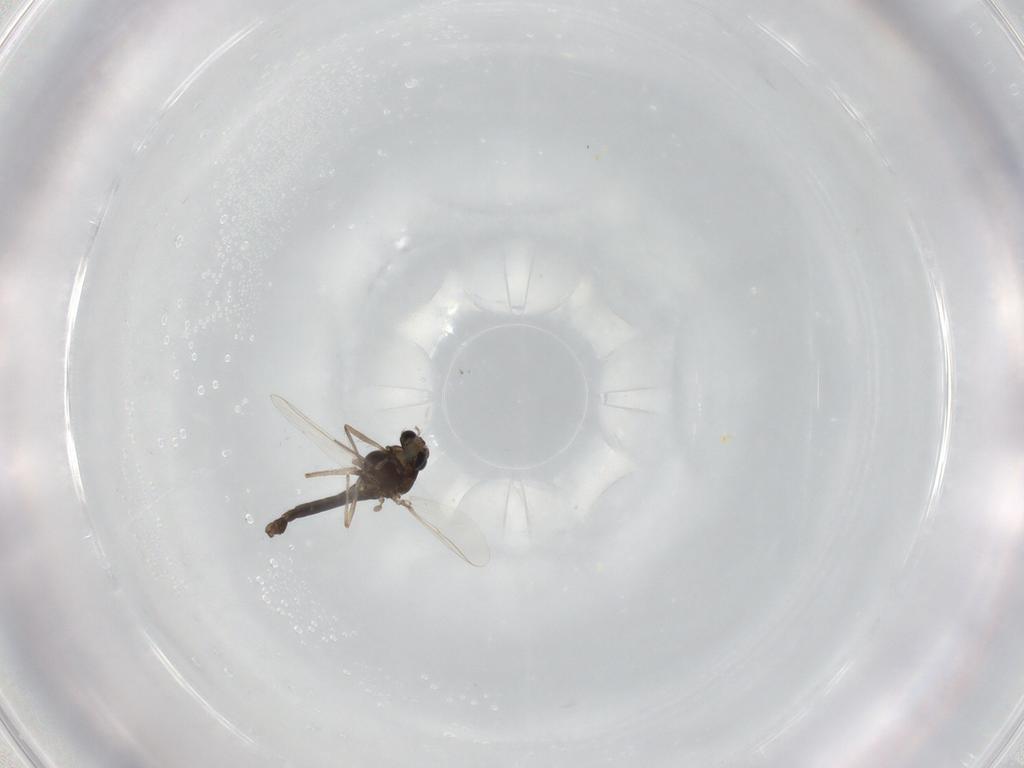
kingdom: Animalia
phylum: Arthropoda
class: Insecta
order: Diptera
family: Chironomidae
